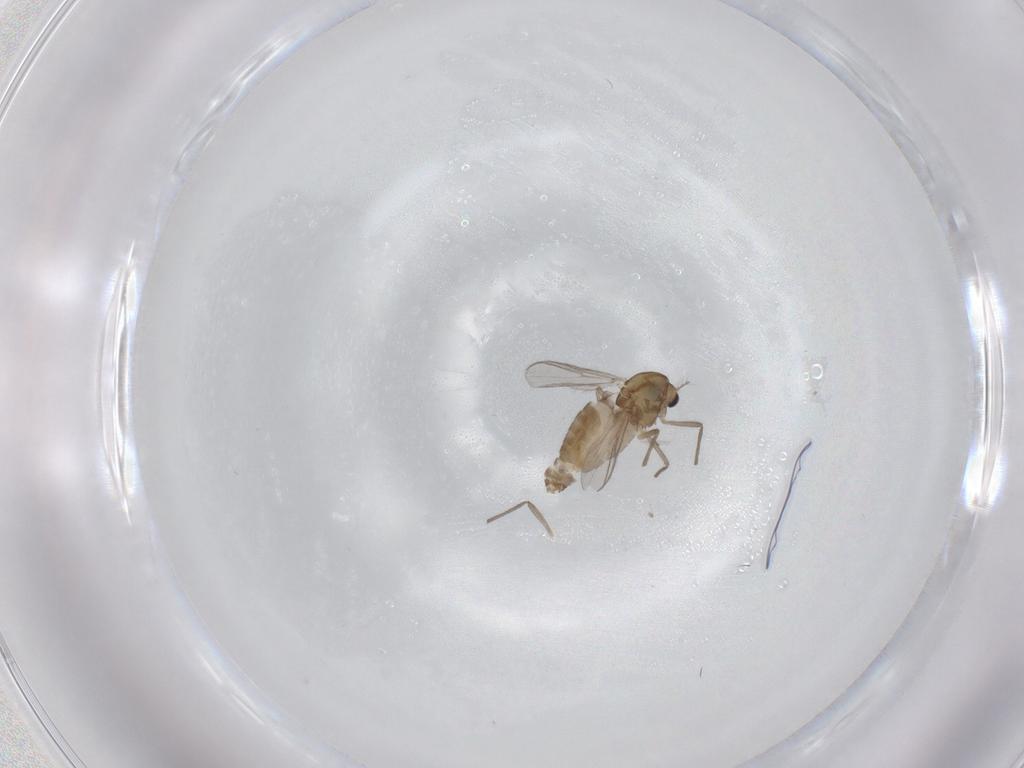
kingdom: Animalia
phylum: Arthropoda
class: Insecta
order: Diptera
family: Chironomidae
